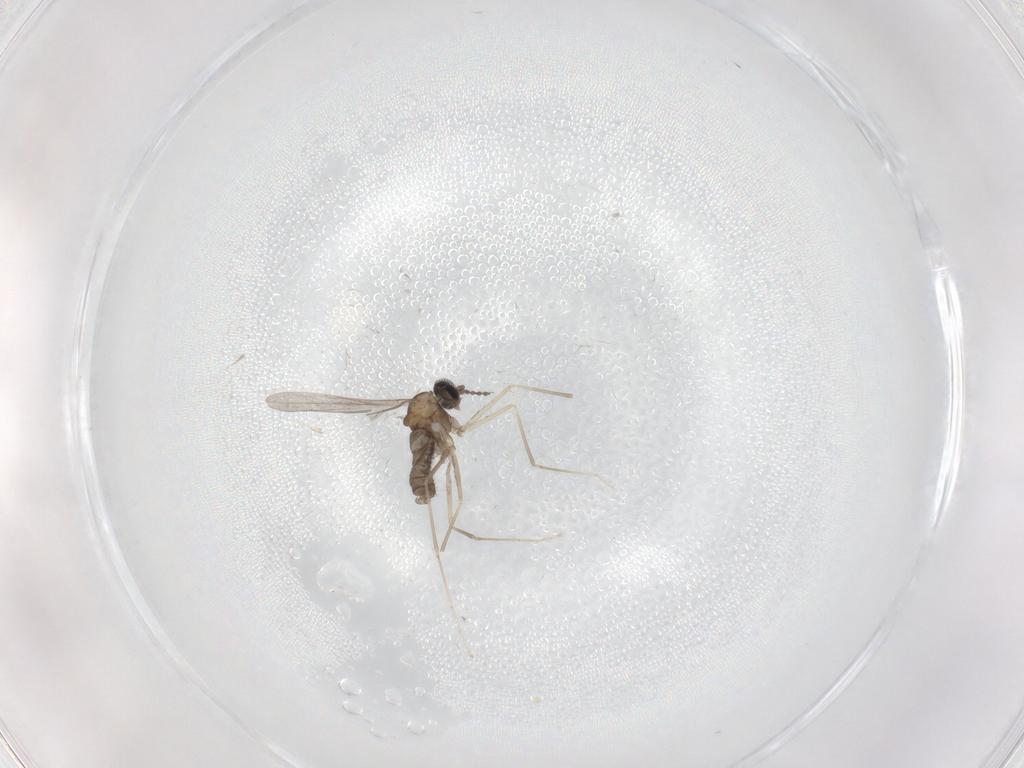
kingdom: Animalia
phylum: Arthropoda
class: Insecta
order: Diptera
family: Cecidomyiidae
